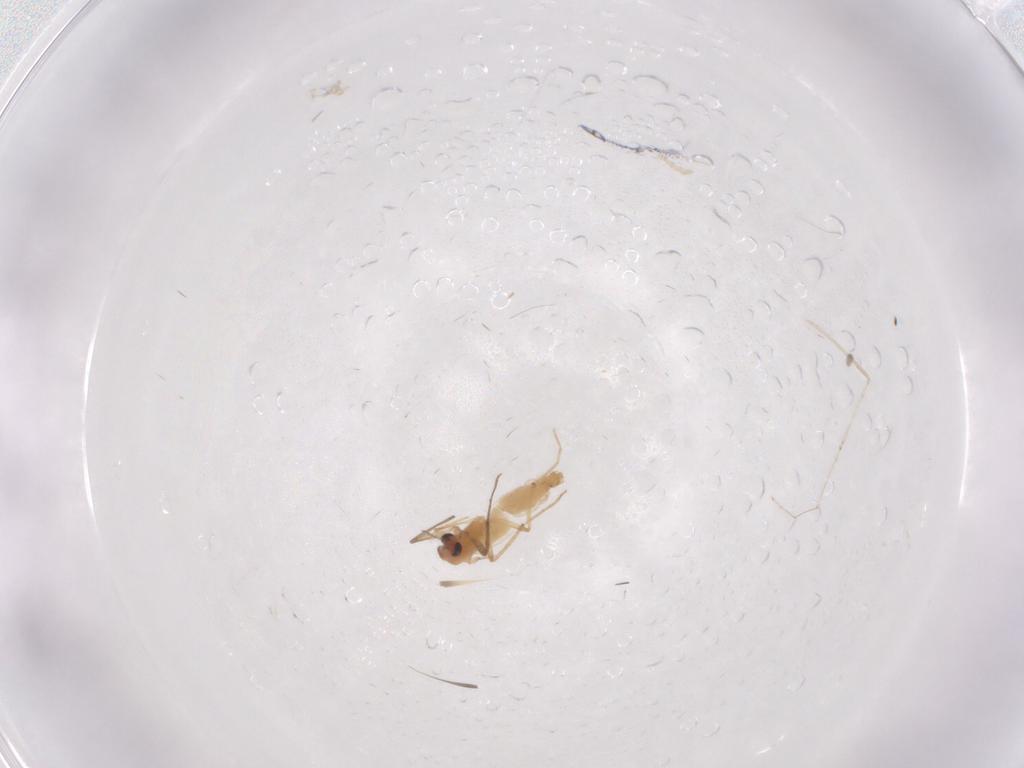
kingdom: Animalia
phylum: Arthropoda
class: Insecta
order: Diptera
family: Chironomidae
